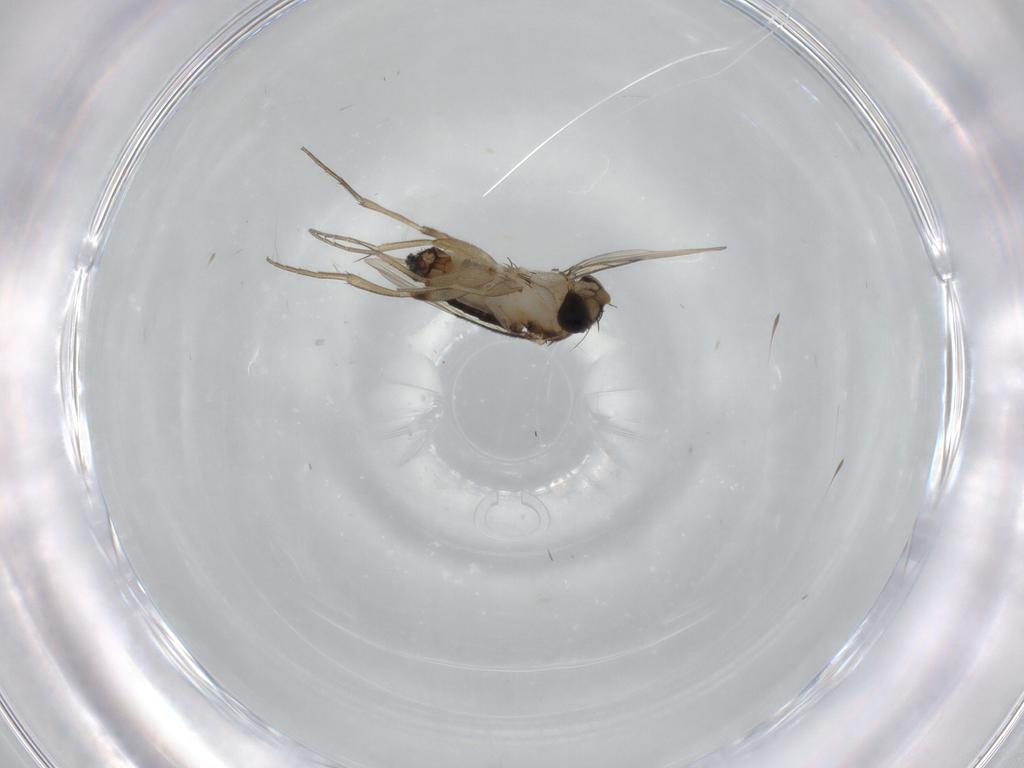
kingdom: Animalia
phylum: Arthropoda
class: Insecta
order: Diptera
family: Phoridae
